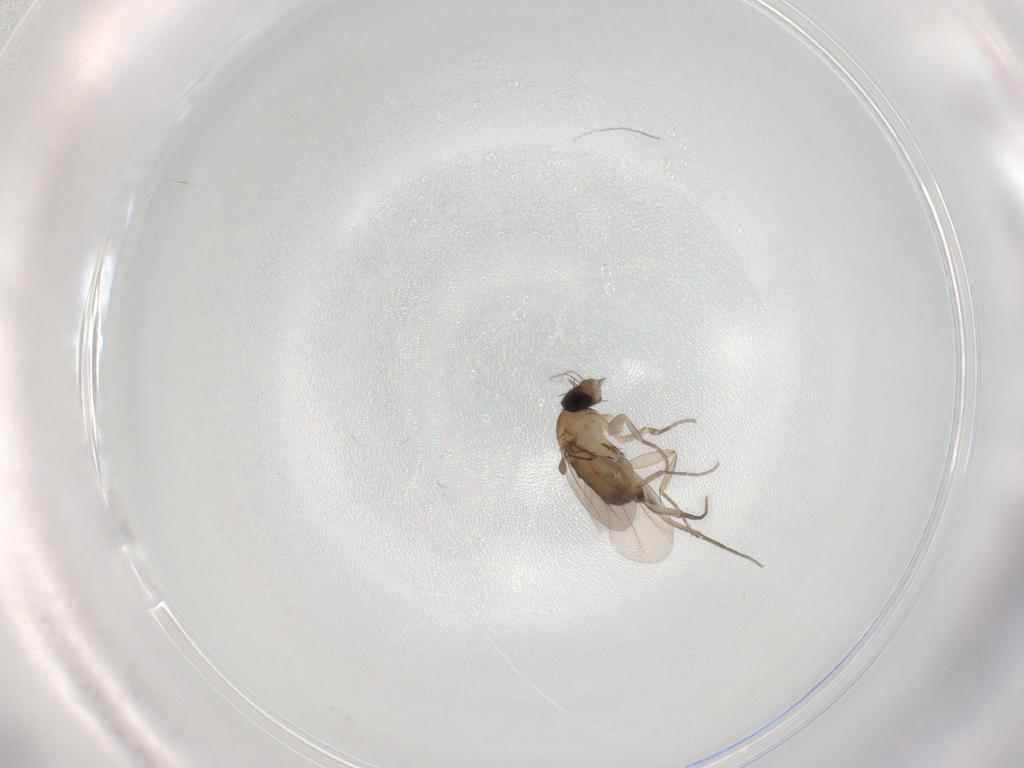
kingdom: Animalia
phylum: Arthropoda
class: Insecta
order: Diptera
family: Phoridae
